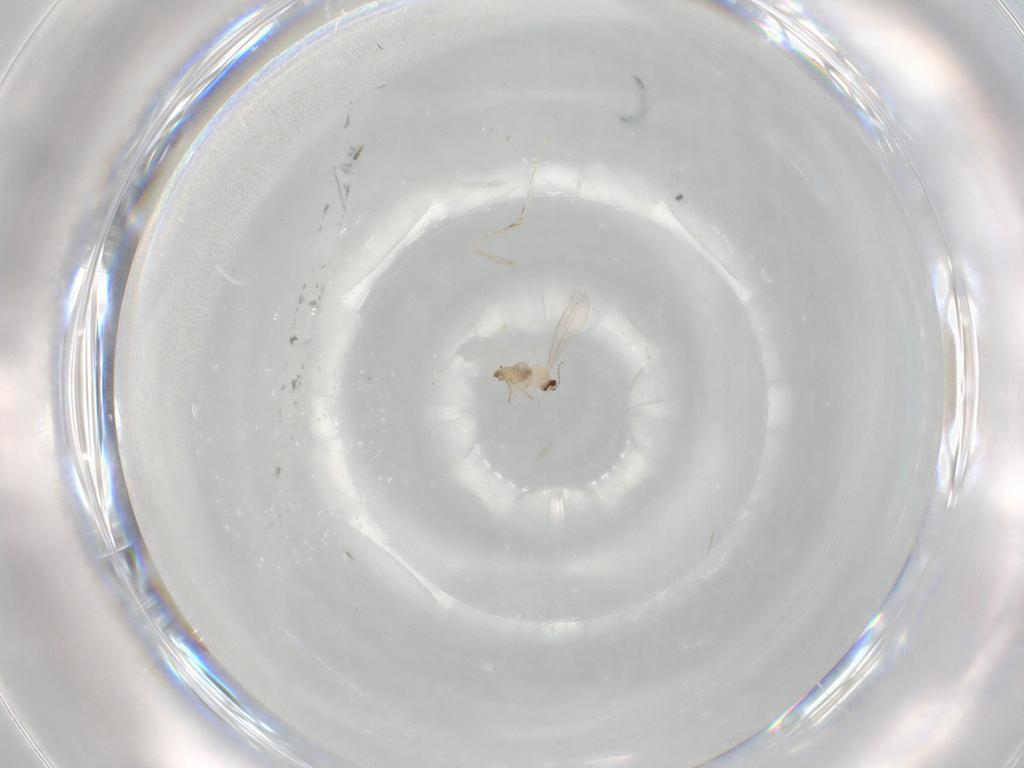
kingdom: Animalia
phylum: Arthropoda
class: Insecta
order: Diptera
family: Cecidomyiidae
